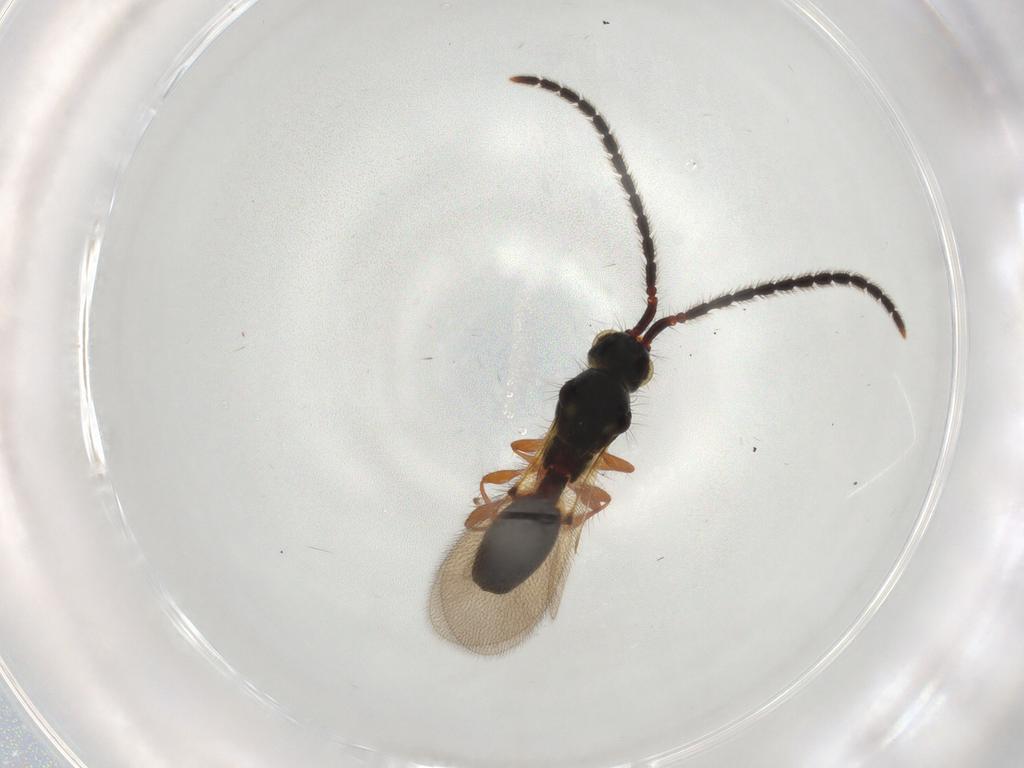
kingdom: Animalia
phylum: Arthropoda
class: Insecta
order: Hymenoptera
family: Diapriidae
